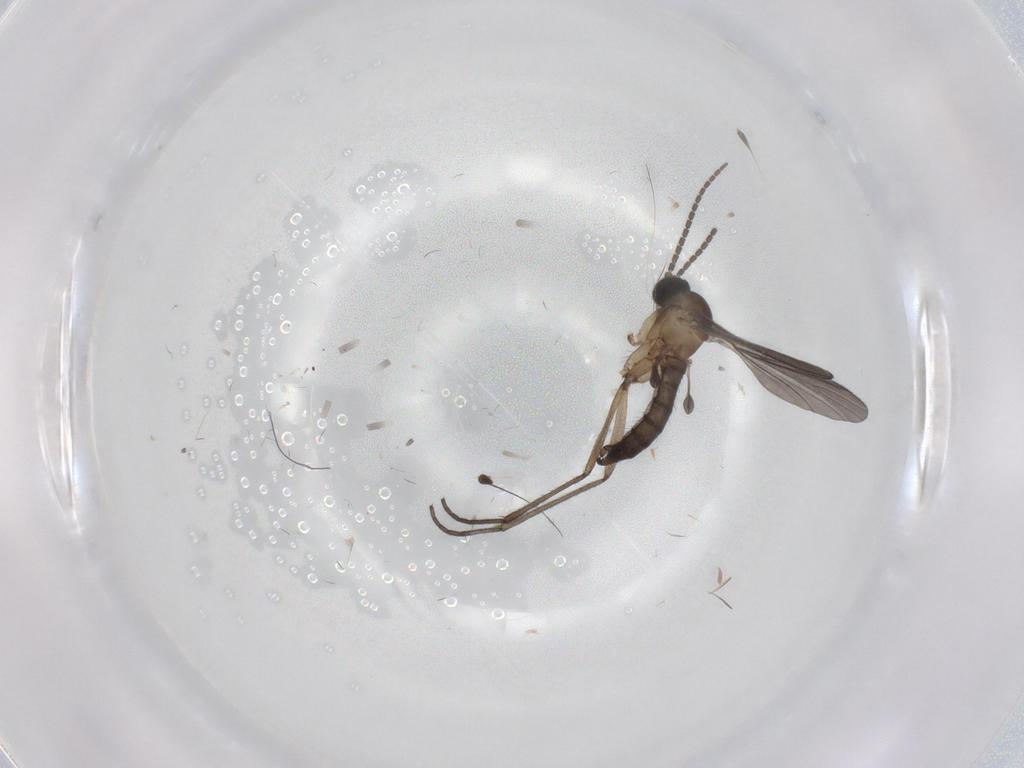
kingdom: Animalia
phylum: Arthropoda
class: Insecta
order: Diptera
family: Sciaridae
